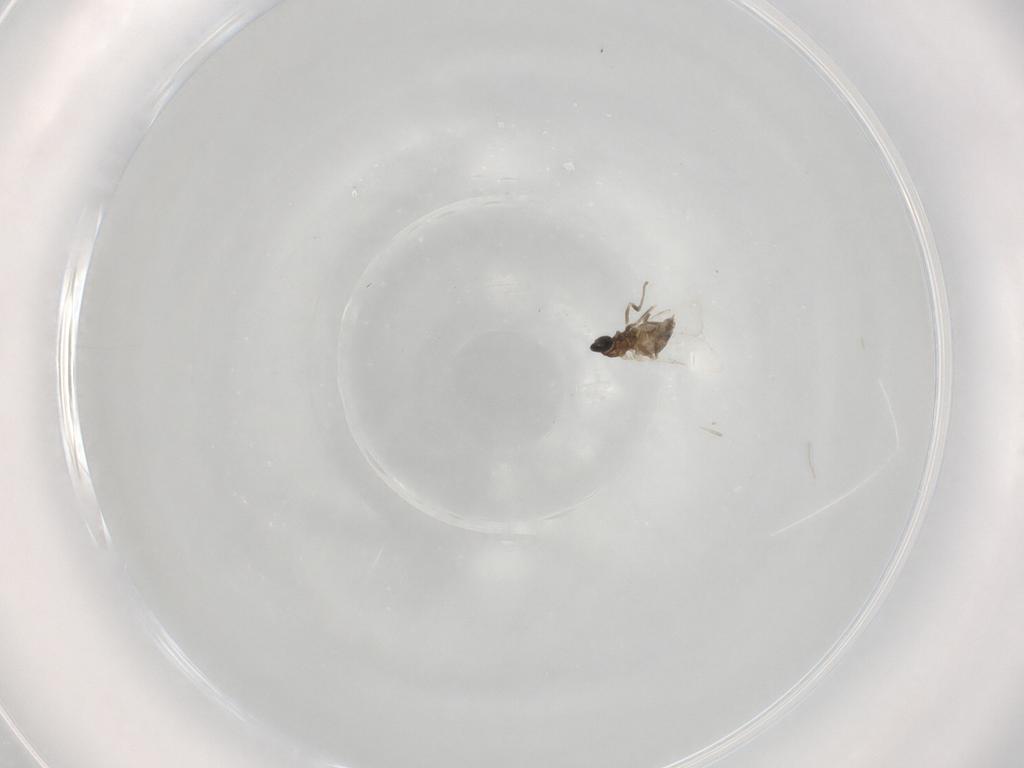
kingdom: Animalia
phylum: Arthropoda
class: Insecta
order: Diptera
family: Cecidomyiidae
